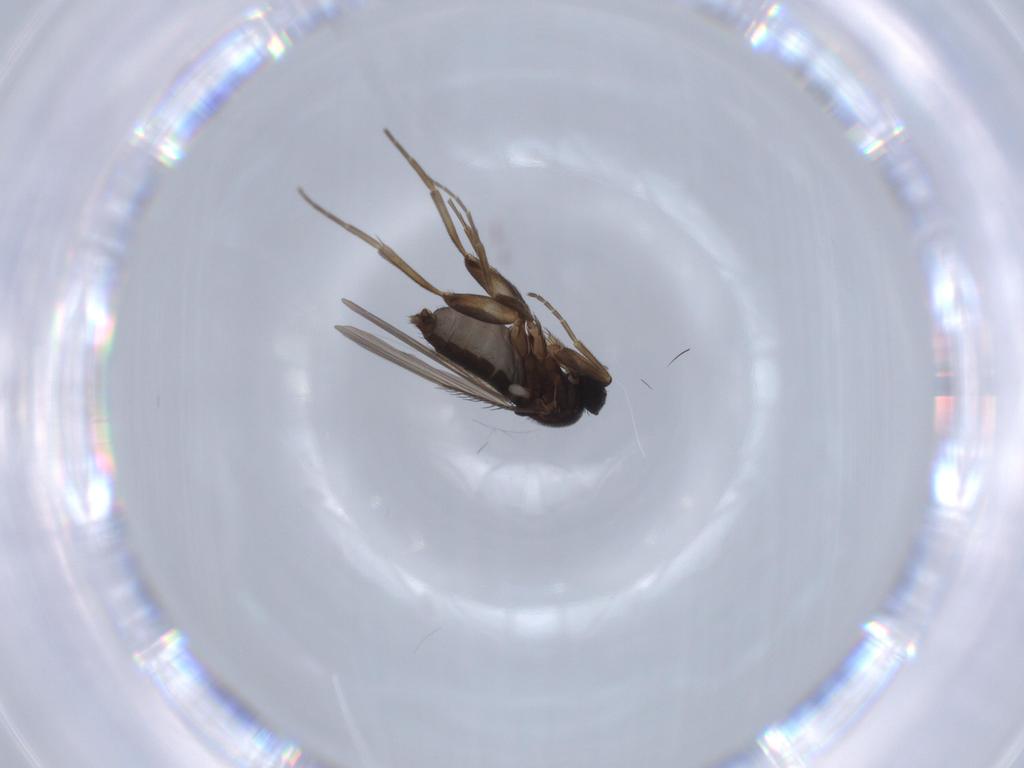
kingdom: Animalia
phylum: Arthropoda
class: Insecta
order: Diptera
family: Phoridae
